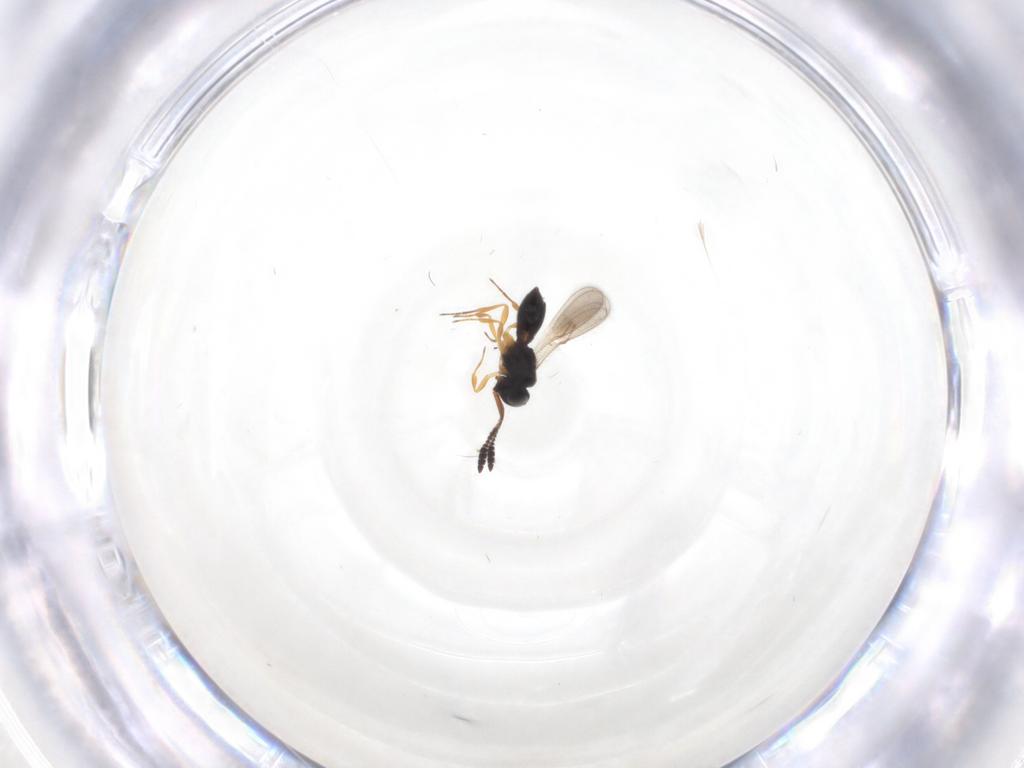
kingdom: Animalia
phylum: Arthropoda
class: Insecta
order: Hymenoptera
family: Scelionidae
